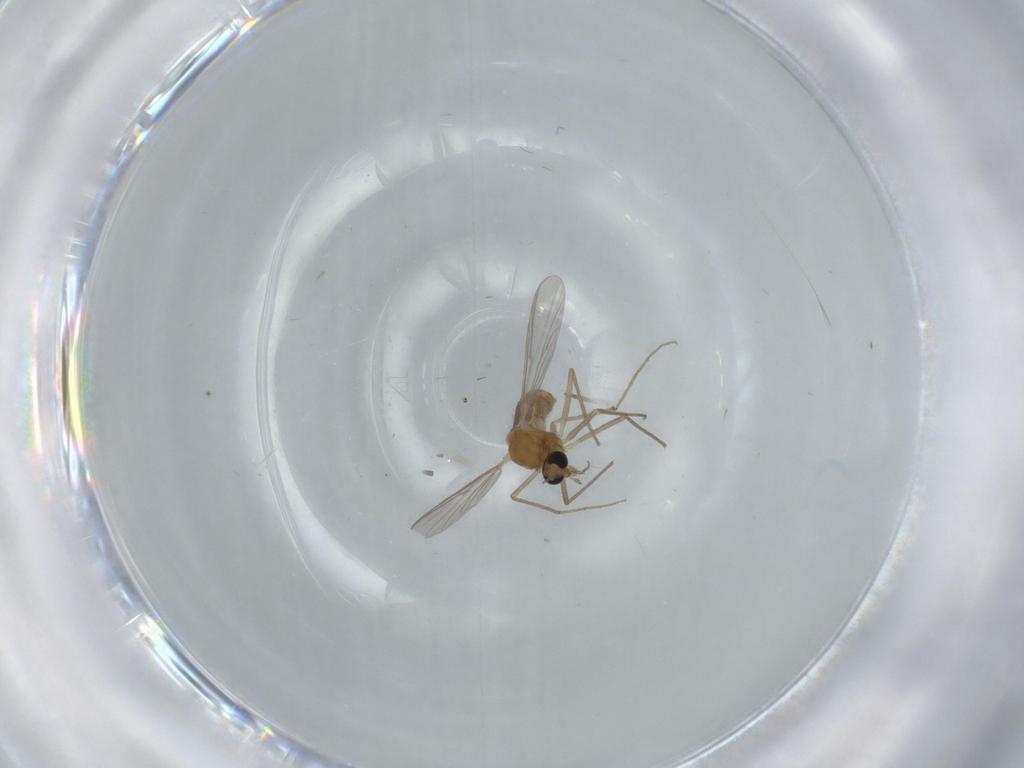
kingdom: Animalia
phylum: Arthropoda
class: Insecta
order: Diptera
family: Chironomidae
